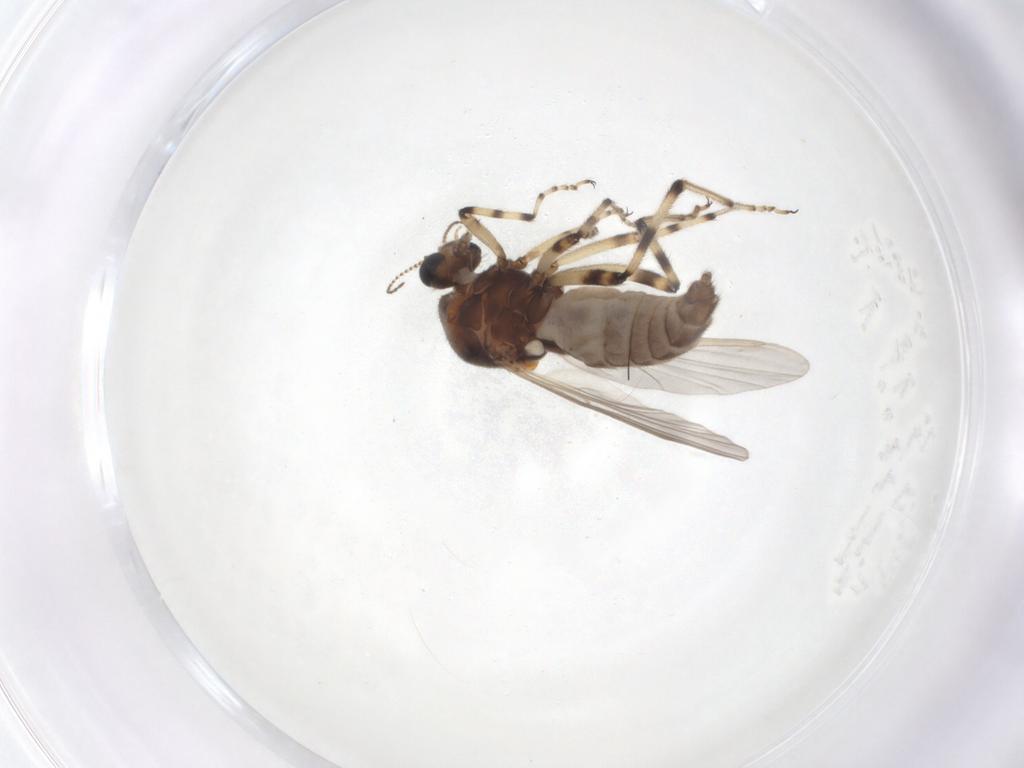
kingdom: Animalia
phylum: Arthropoda
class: Insecta
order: Diptera
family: Ceratopogonidae
